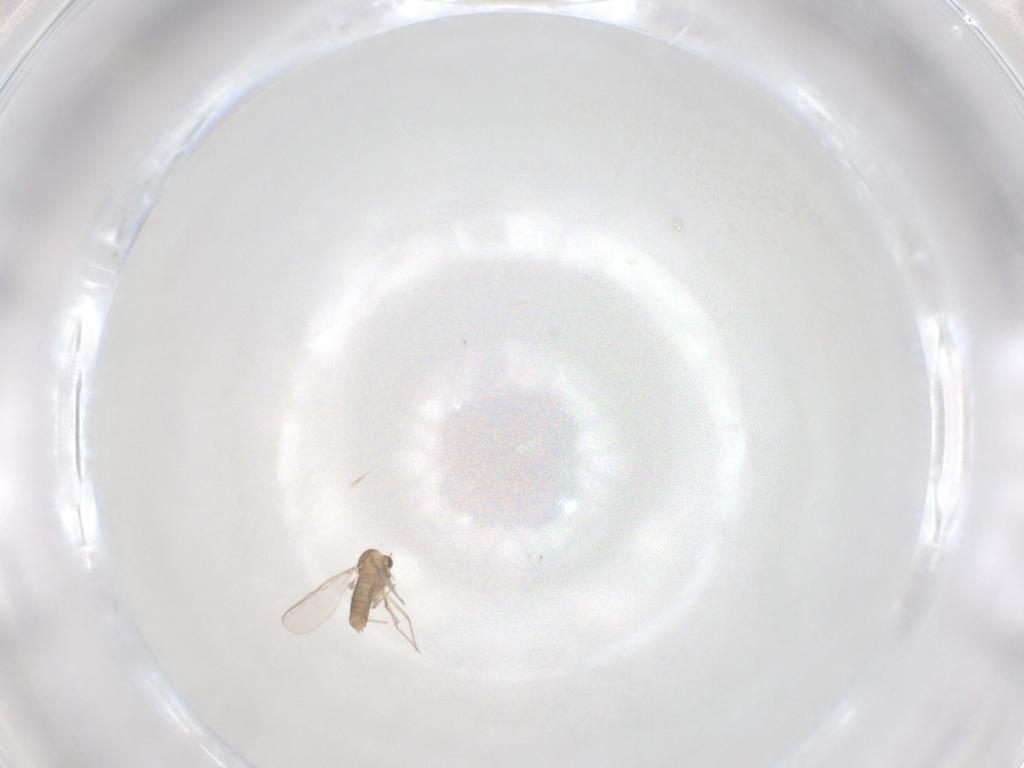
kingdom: Animalia
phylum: Arthropoda
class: Insecta
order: Diptera
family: Chironomidae
